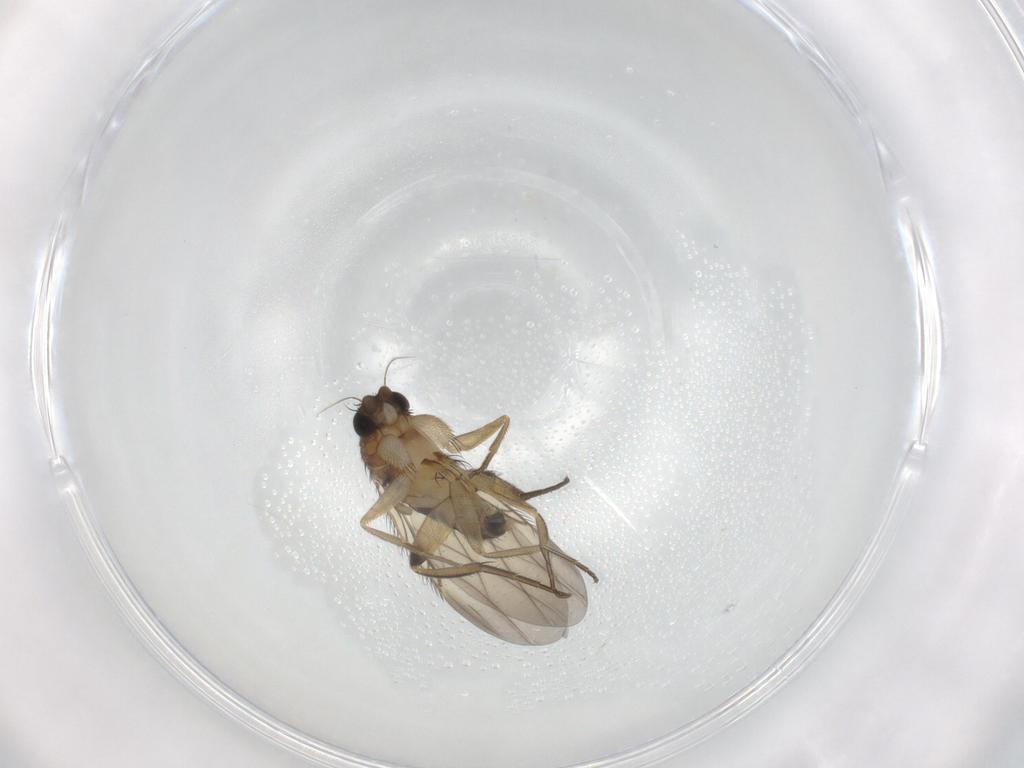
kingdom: Animalia
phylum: Arthropoda
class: Insecta
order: Diptera
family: Phoridae
